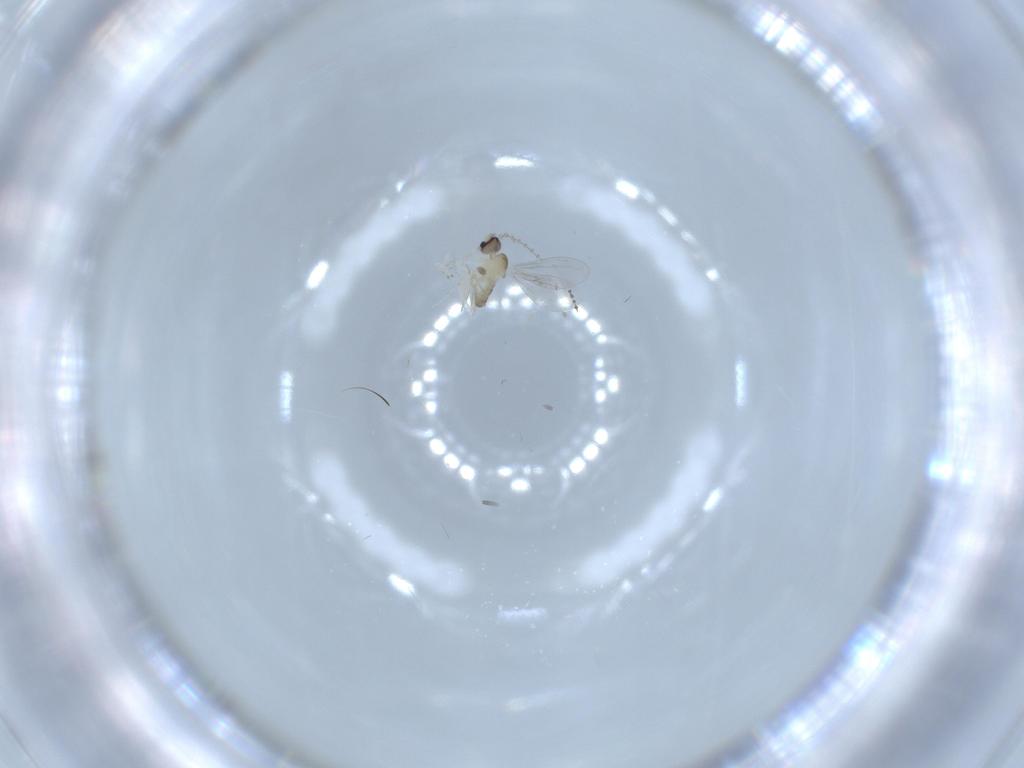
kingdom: Animalia
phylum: Arthropoda
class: Insecta
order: Diptera
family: Cecidomyiidae
